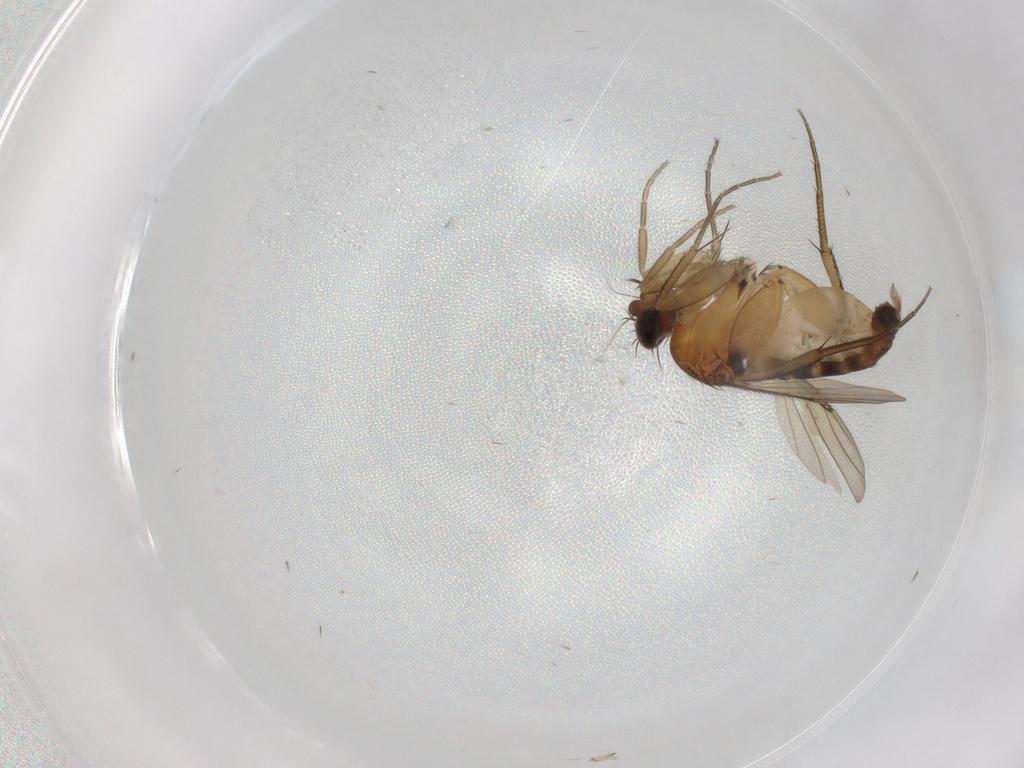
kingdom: Animalia
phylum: Arthropoda
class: Insecta
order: Diptera
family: Phoridae
